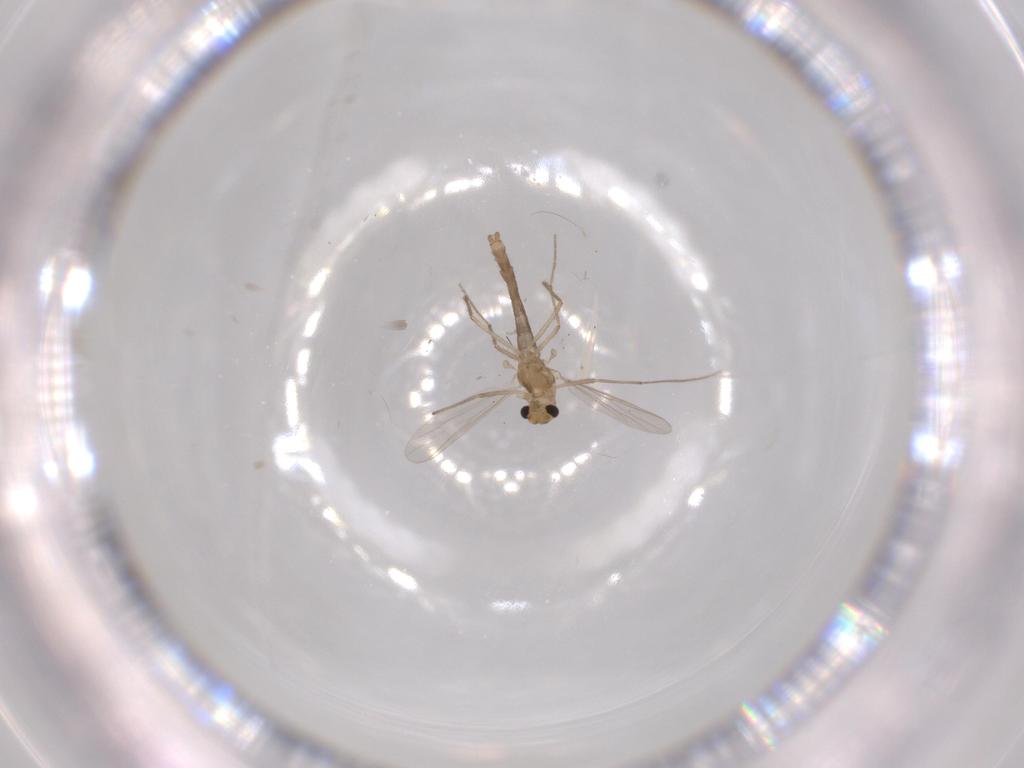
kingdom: Animalia
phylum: Arthropoda
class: Insecta
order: Diptera
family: Chironomidae
